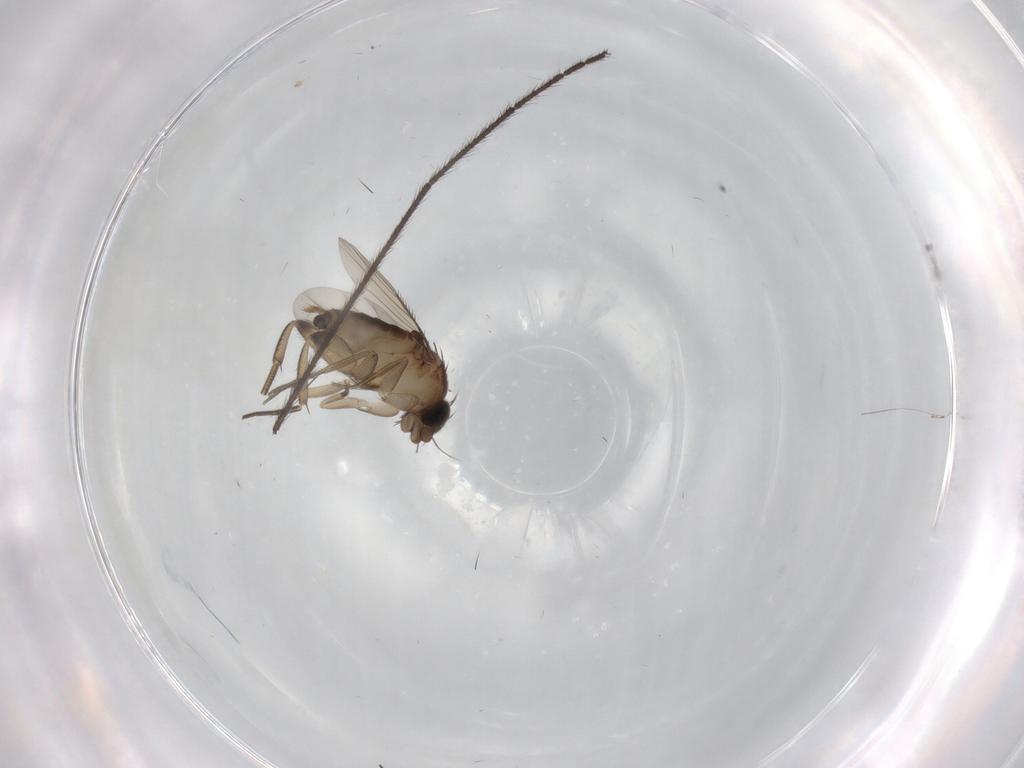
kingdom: Animalia
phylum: Arthropoda
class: Insecta
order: Diptera
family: Phoridae
